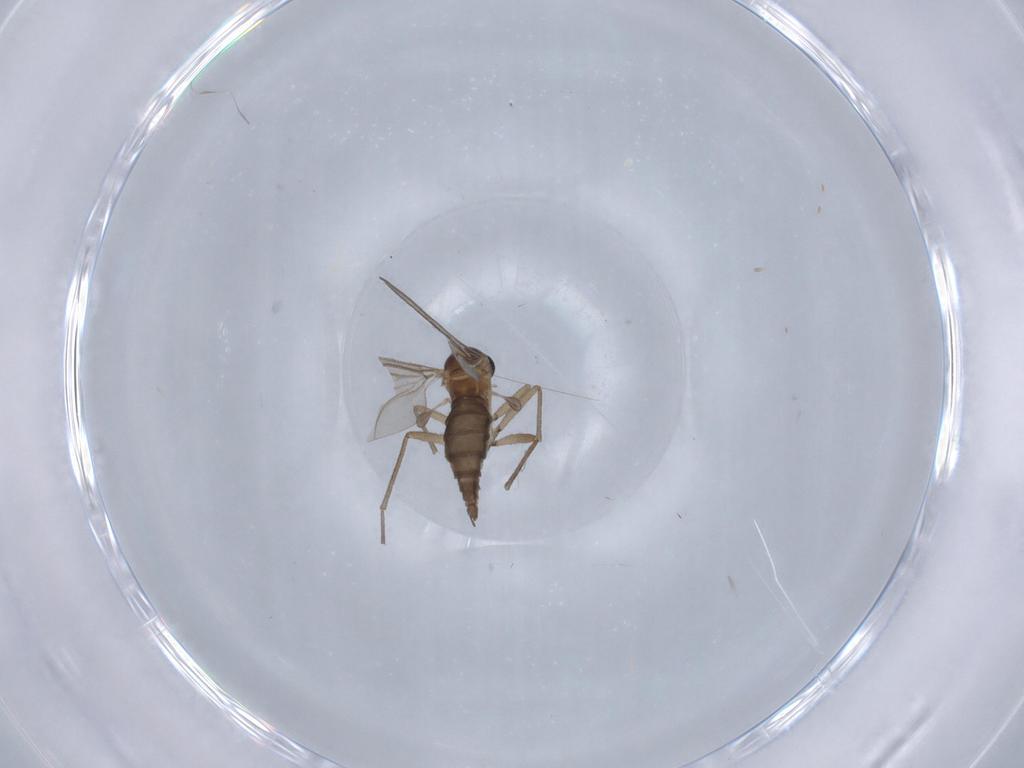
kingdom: Animalia
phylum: Arthropoda
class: Insecta
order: Diptera
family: Sciaridae
